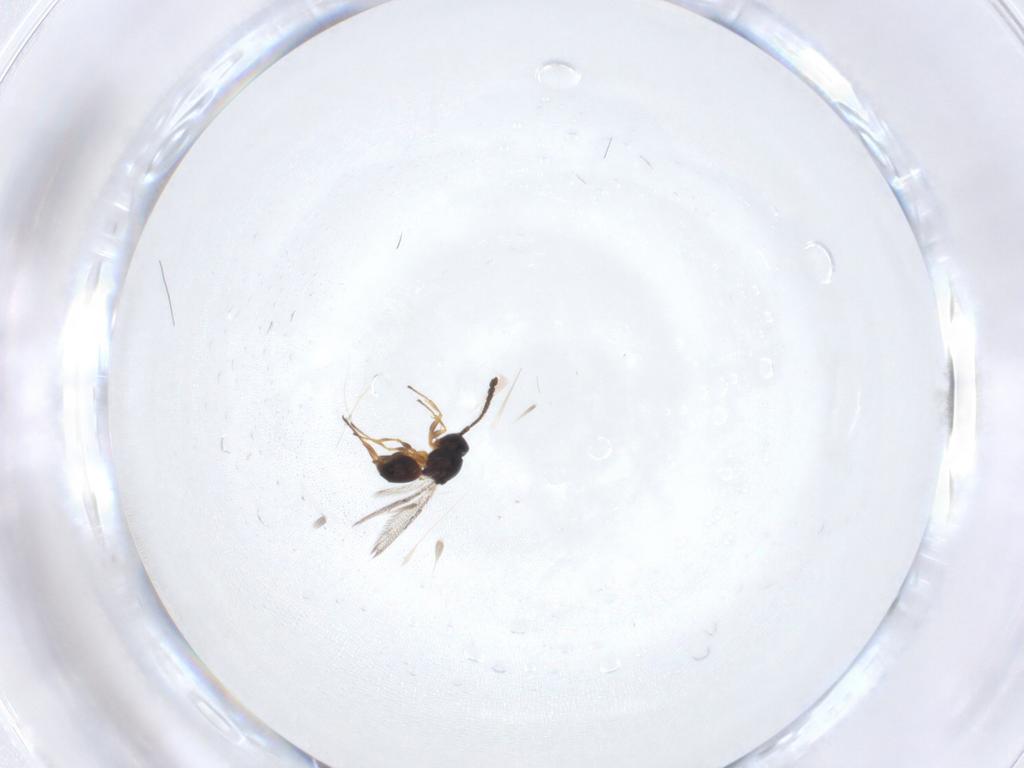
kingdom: Animalia
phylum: Arthropoda
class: Insecta
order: Hymenoptera
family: Figitidae
